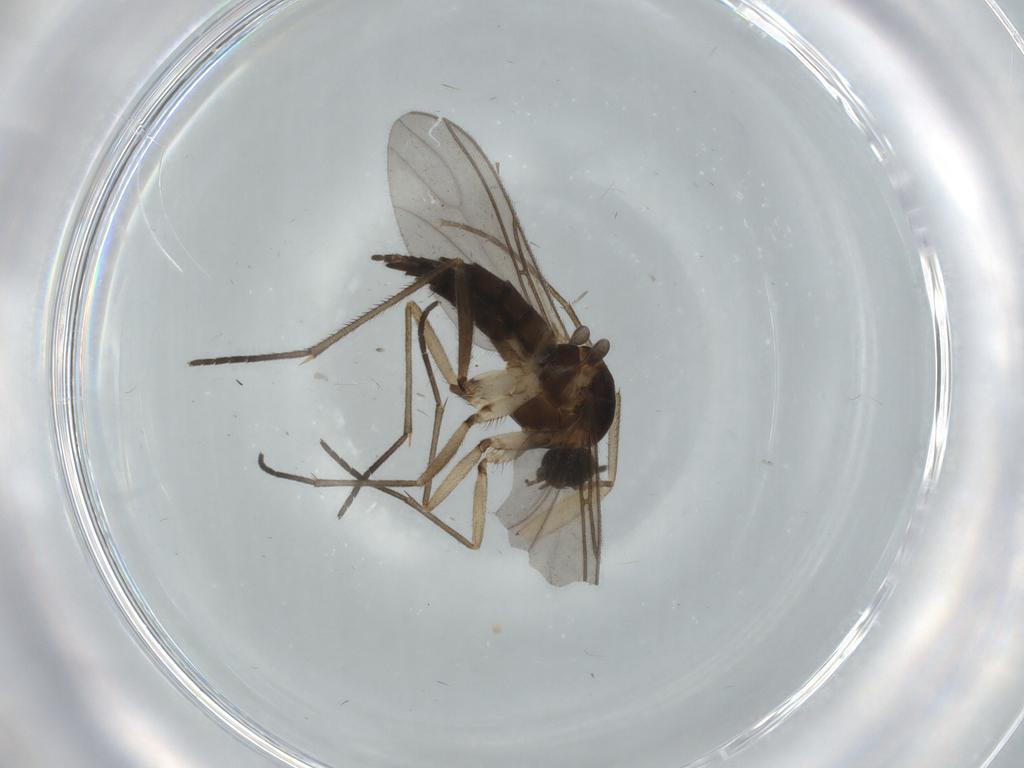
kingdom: Animalia
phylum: Arthropoda
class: Insecta
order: Diptera
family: Sciaridae
